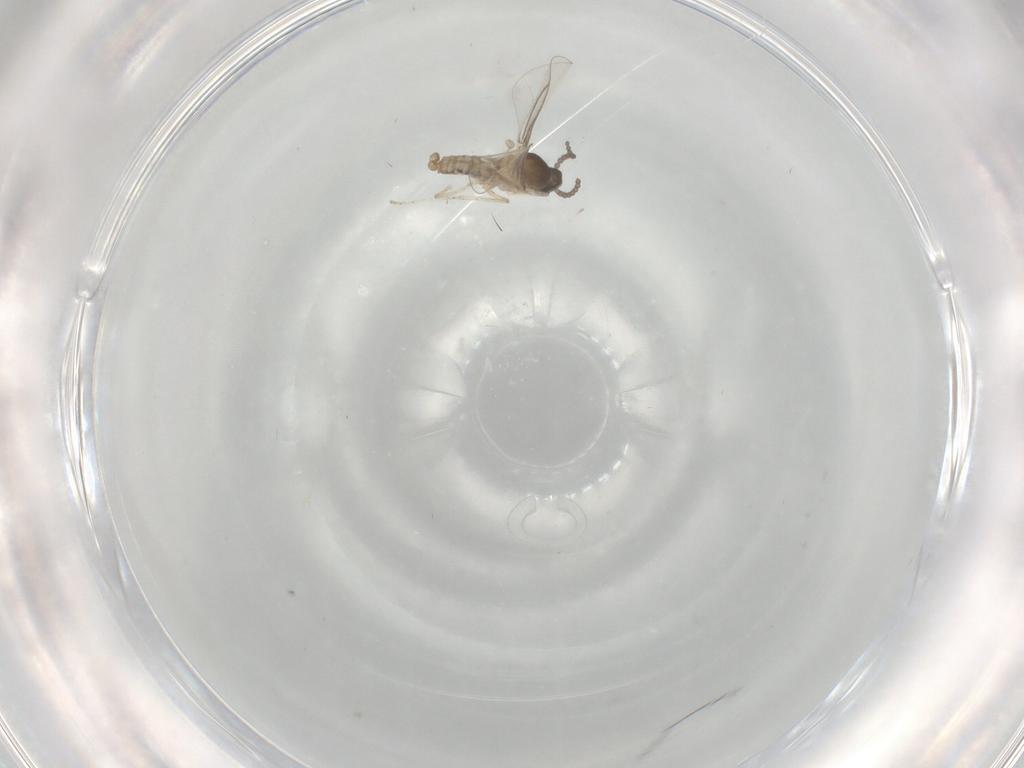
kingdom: Animalia
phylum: Arthropoda
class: Insecta
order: Diptera
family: Cecidomyiidae
